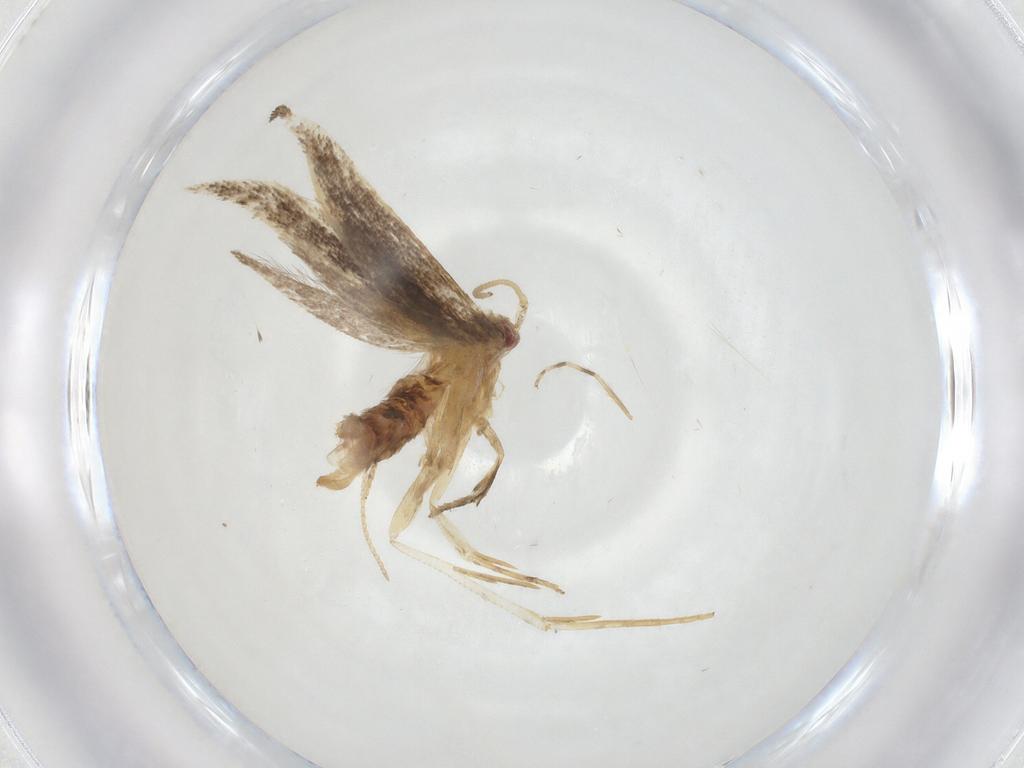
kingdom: Animalia
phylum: Arthropoda
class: Insecta
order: Lepidoptera
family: Cosmopterigidae
